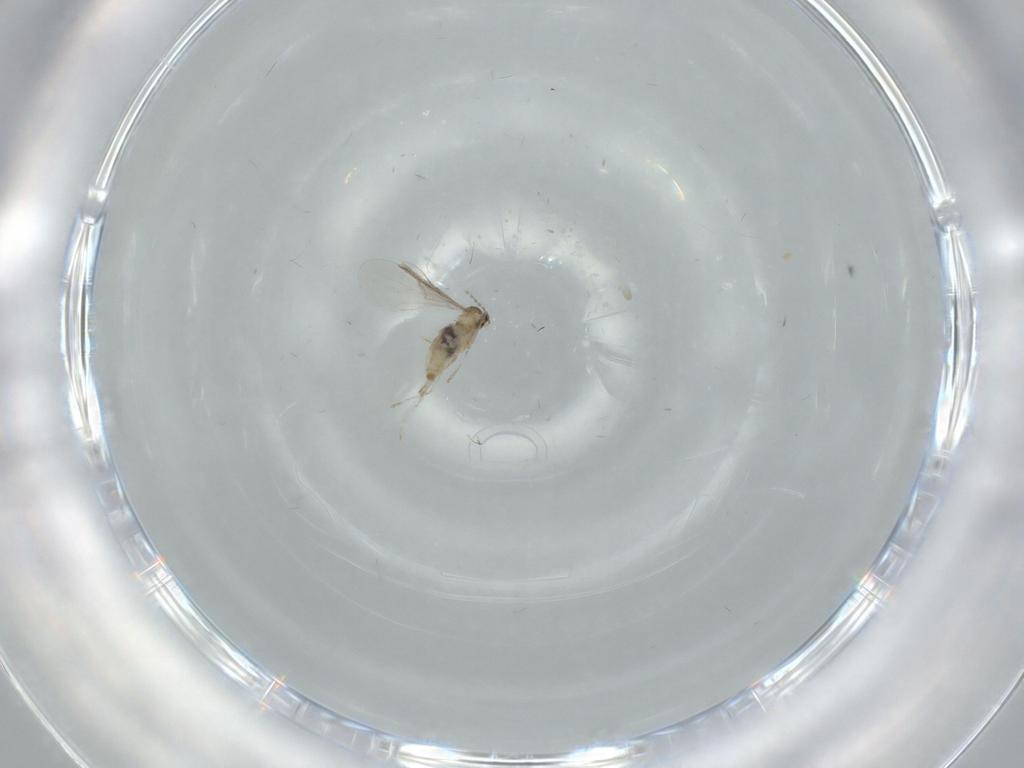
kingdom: Animalia
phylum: Arthropoda
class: Insecta
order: Diptera
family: Cecidomyiidae
